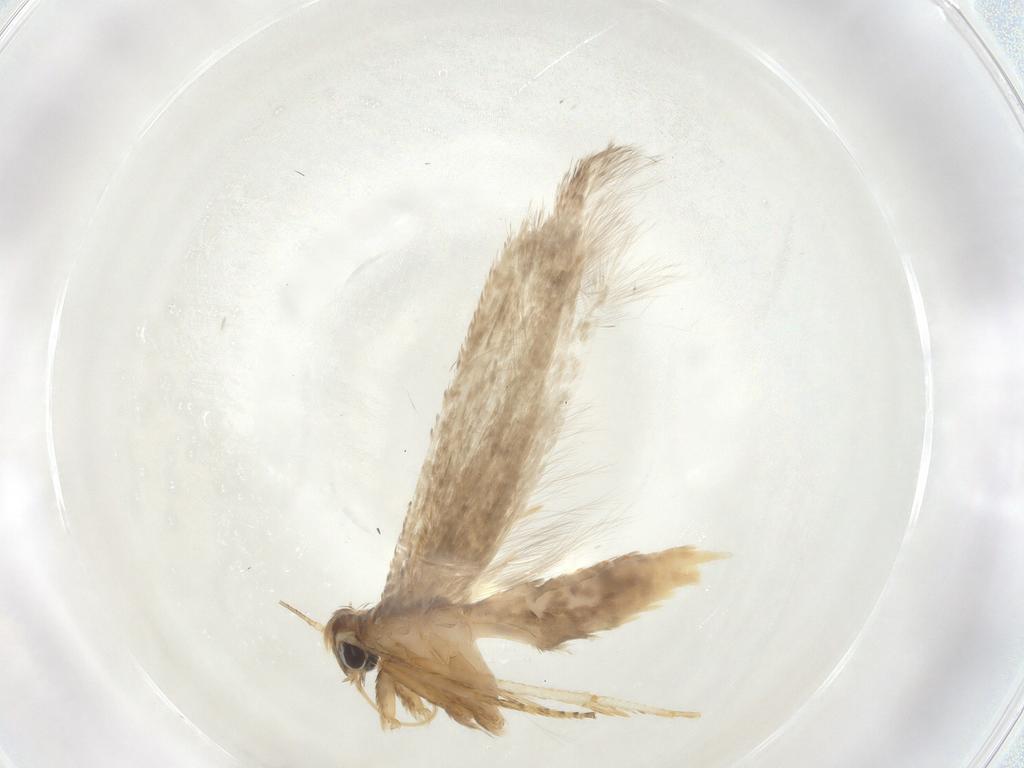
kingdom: Animalia
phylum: Arthropoda
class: Insecta
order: Lepidoptera
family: Blastobasidae
